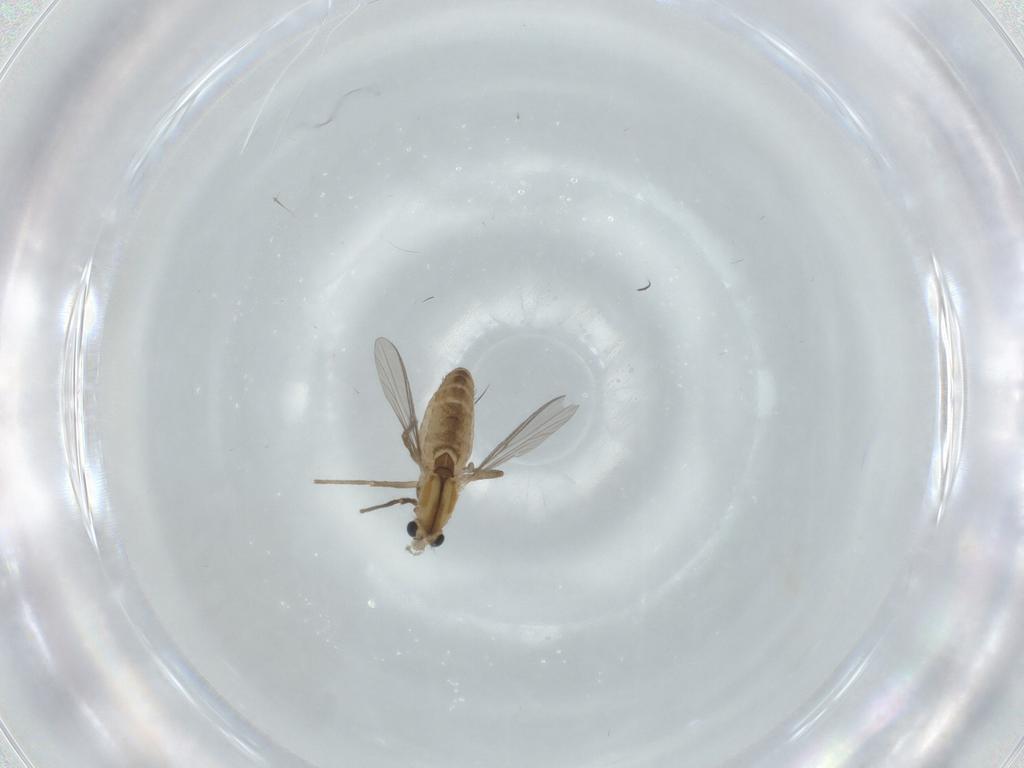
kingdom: Animalia
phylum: Arthropoda
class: Insecta
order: Diptera
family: Chironomidae
